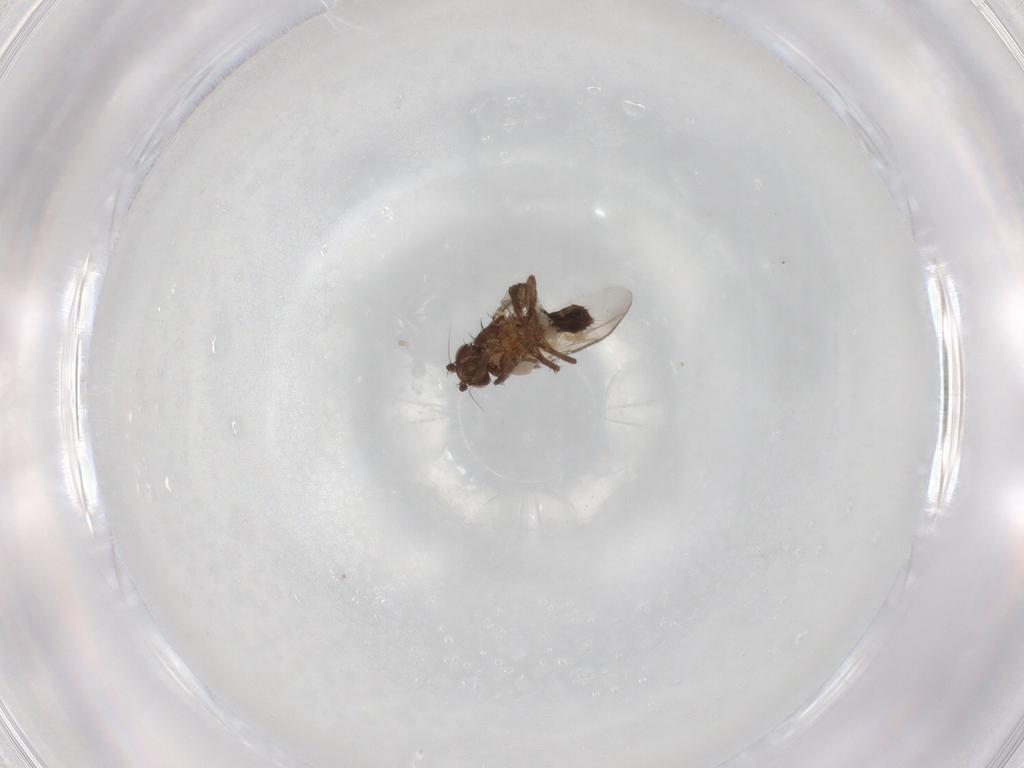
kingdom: Animalia
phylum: Arthropoda
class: Insecta
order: Diptera
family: Sphaeroceridae
